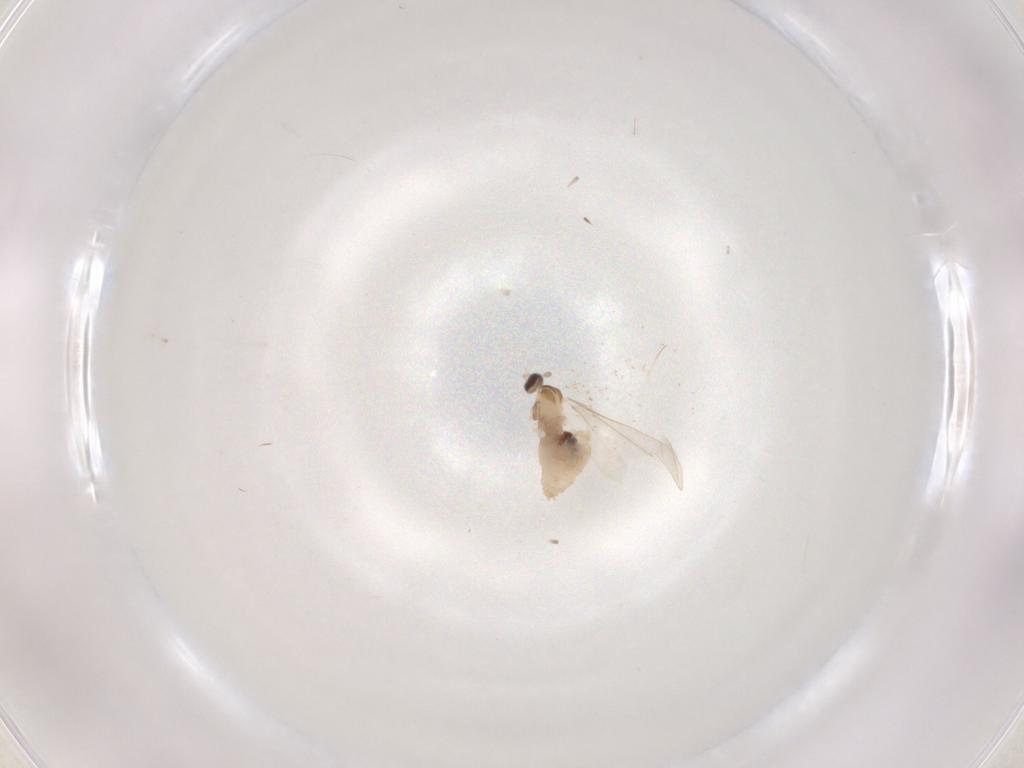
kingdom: Animalia
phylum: Arthropoda
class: Insecta
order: Diptera
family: Cecidomyiidae
